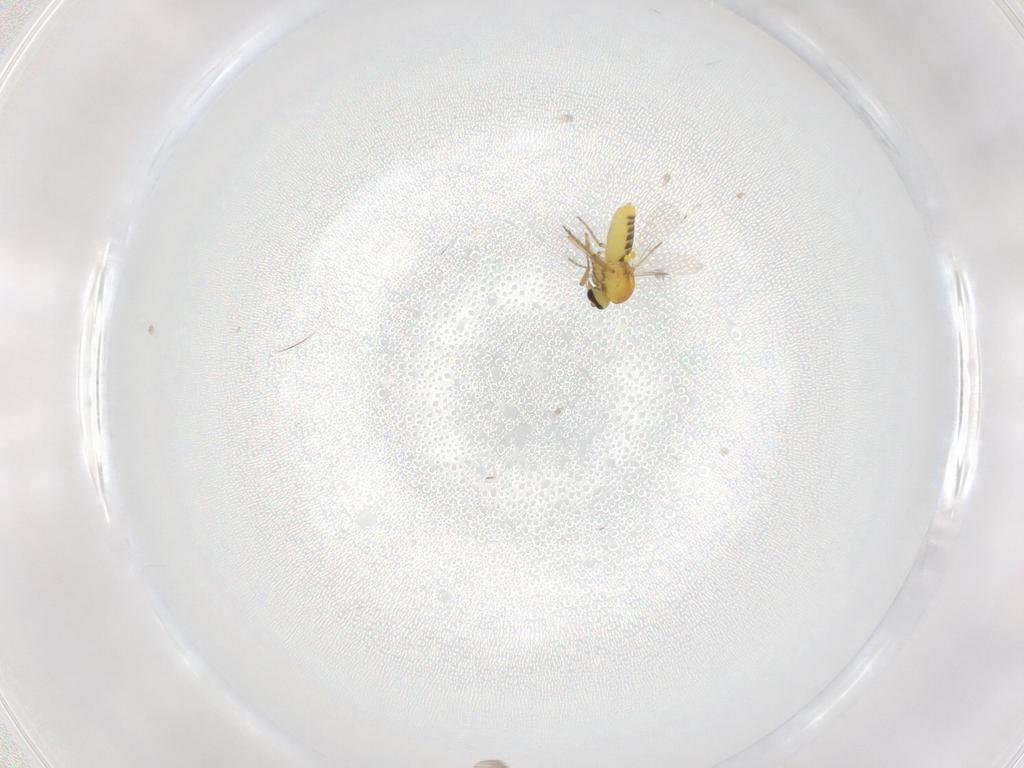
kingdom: Animalia
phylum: Arthropoda
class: Insecta
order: Diptera
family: Ceratopogonidae
